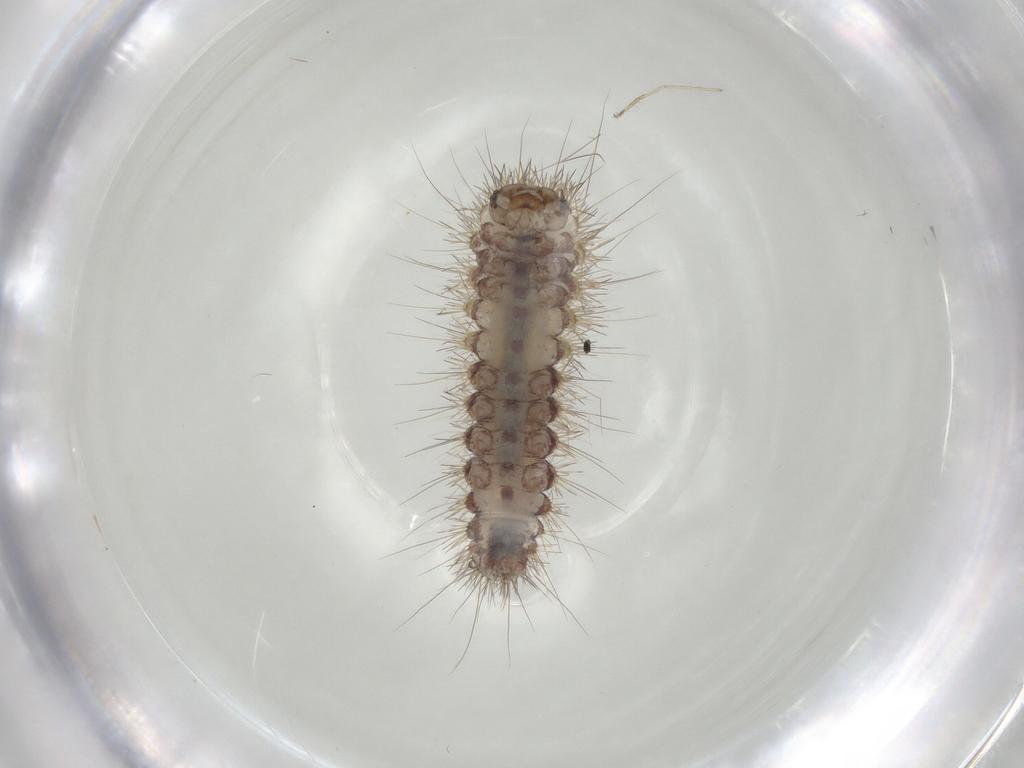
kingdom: Animalia
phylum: Arthropoda
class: Insecta
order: Lepidoptera
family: Erebidae
